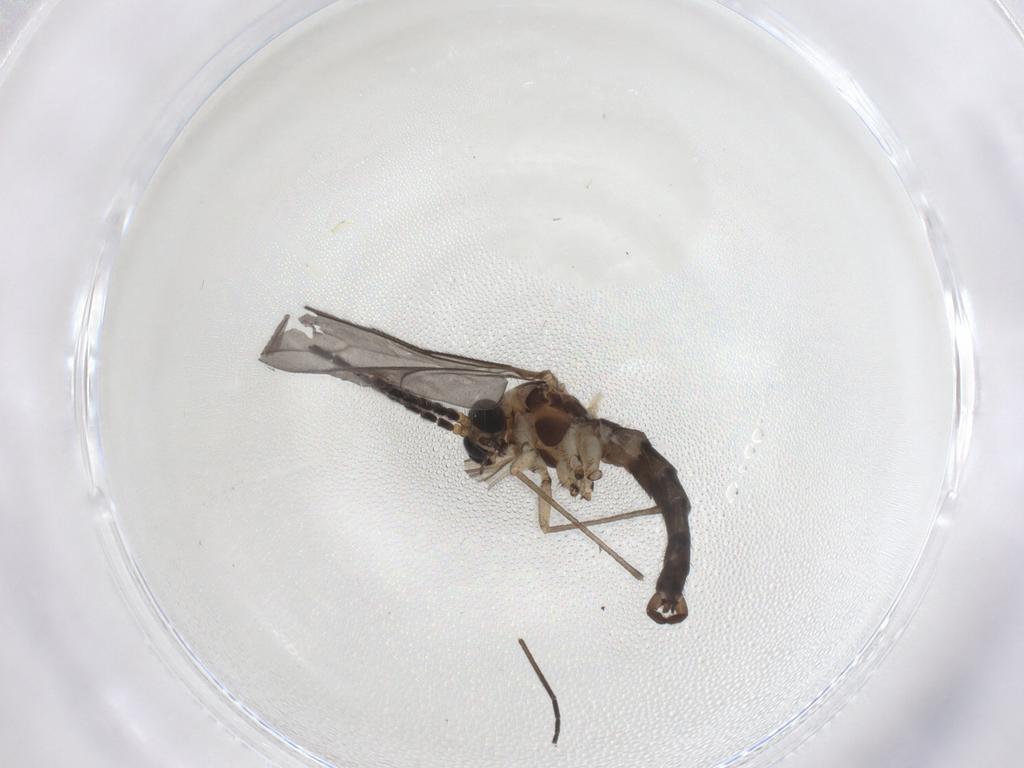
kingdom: Animalia
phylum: Arthropoda
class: Insecta
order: Diptera
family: Sciaridae
